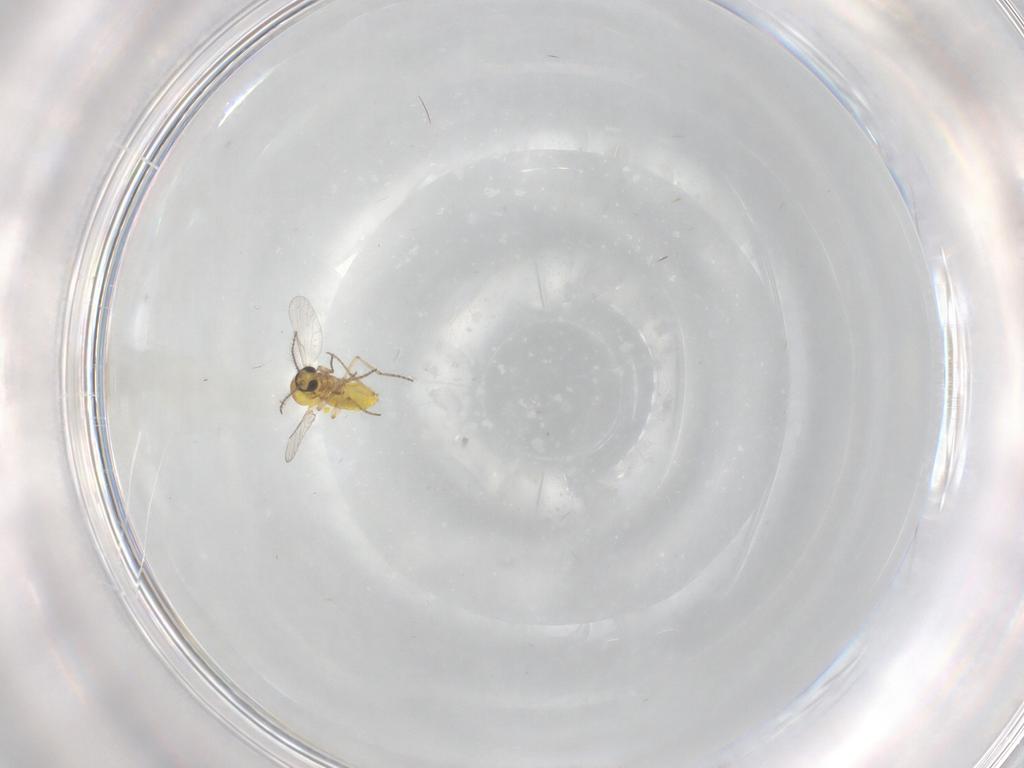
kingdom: Animalia
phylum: Arthropoda
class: Insecta
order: Diptera
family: Ceratopogonidae
